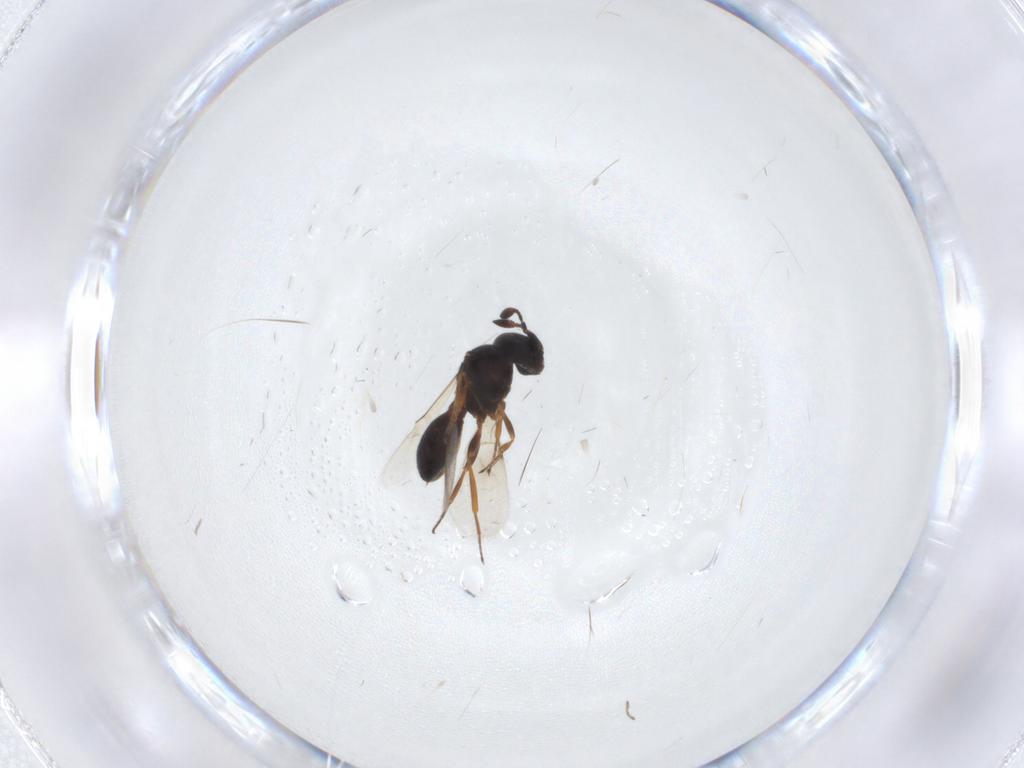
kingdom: Animalia
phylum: Arthropoda
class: Insecta
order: Hymenoptera
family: Scelionidae
